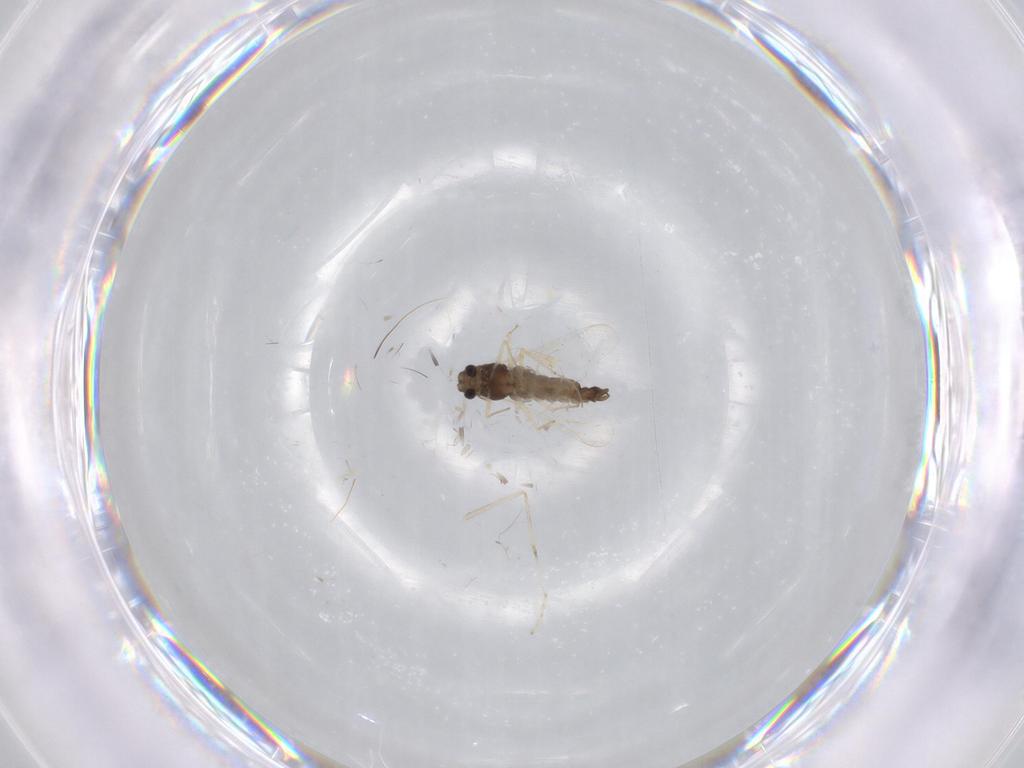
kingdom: Animalia
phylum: Arthropoda
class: Insecta
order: Diptera
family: Chironomidae
